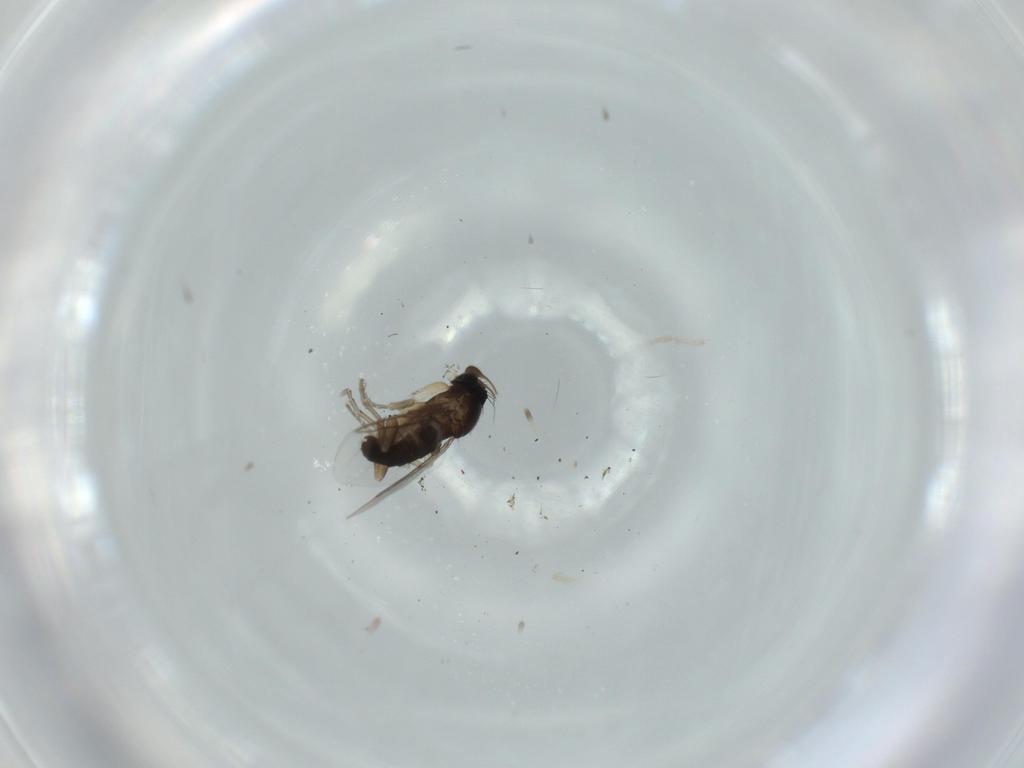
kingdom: Animalia
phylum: Arthropoda
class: Insecta
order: Diptera
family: Phoridae
